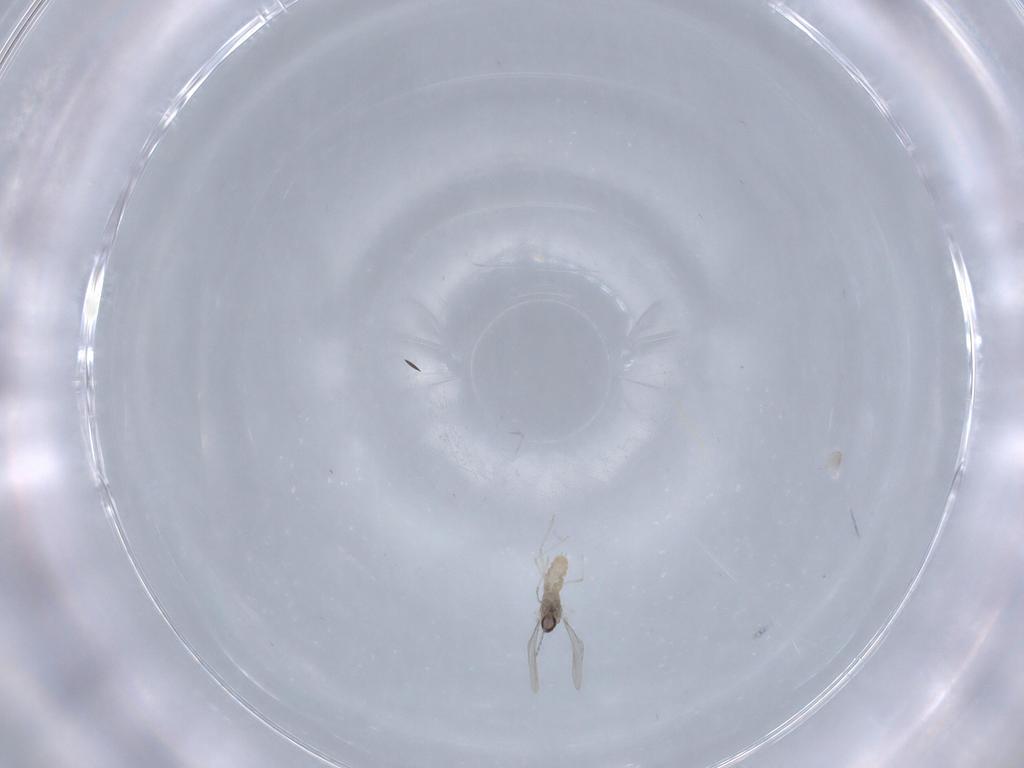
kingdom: Animalia
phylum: Arthropoda
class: Insecta
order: Diptera
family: Cecidomyiidae
